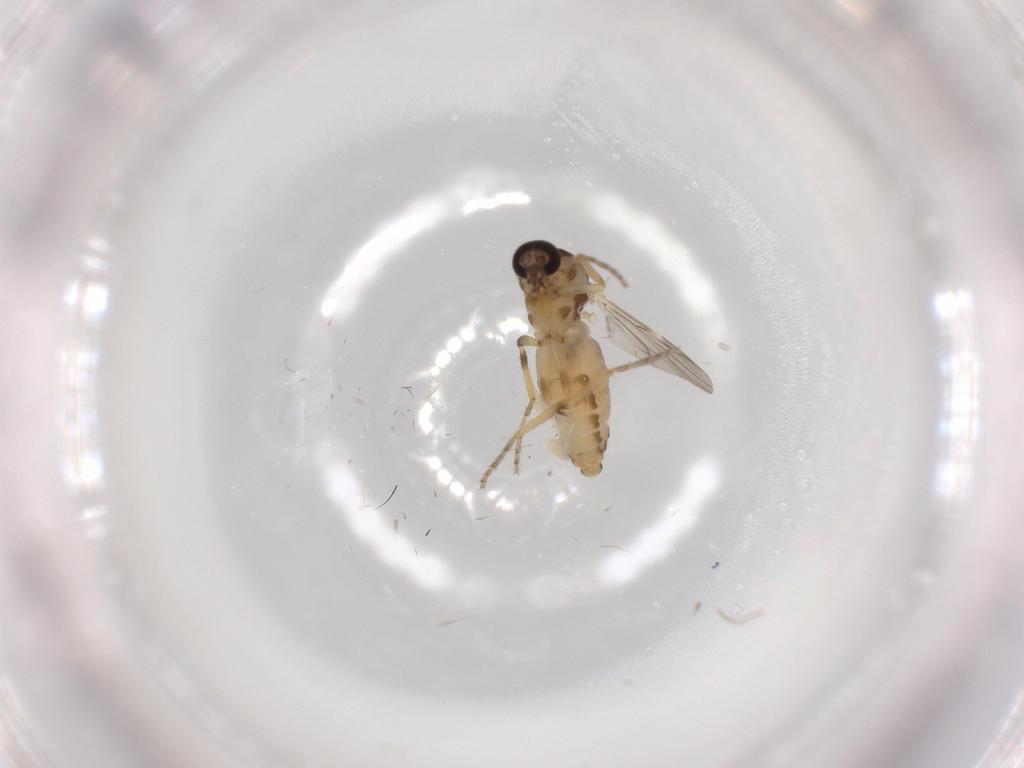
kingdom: Animalia
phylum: Arthropoda
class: Insecta
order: Diptera
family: Ceratopogonidae
